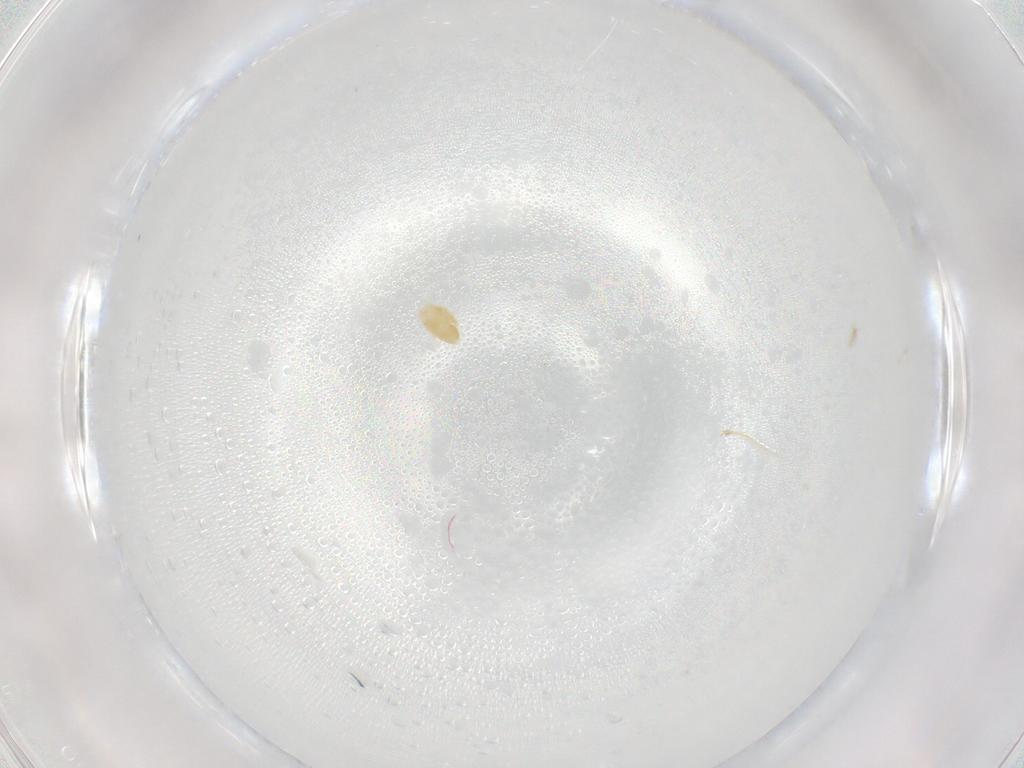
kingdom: Animalia
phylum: Arthropoda
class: Arachnida
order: Trombidiformes
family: Eupodidae
